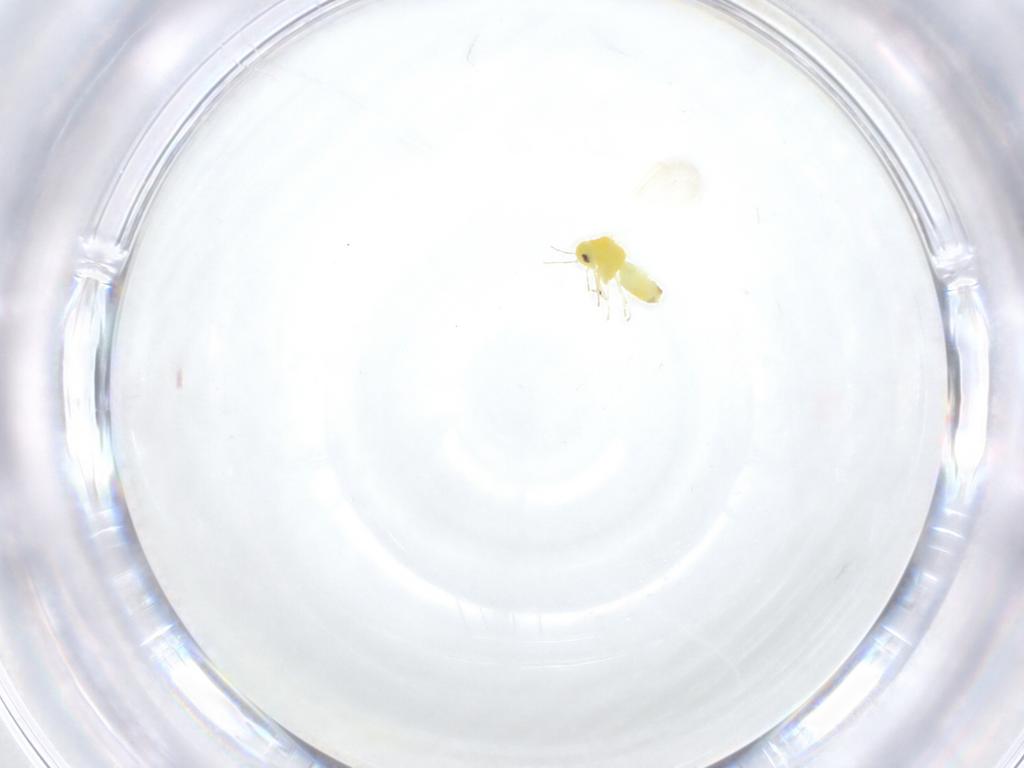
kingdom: Animalia
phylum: Arthropoda
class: Insecta
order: Hemiptera
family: Aleyrodidae
